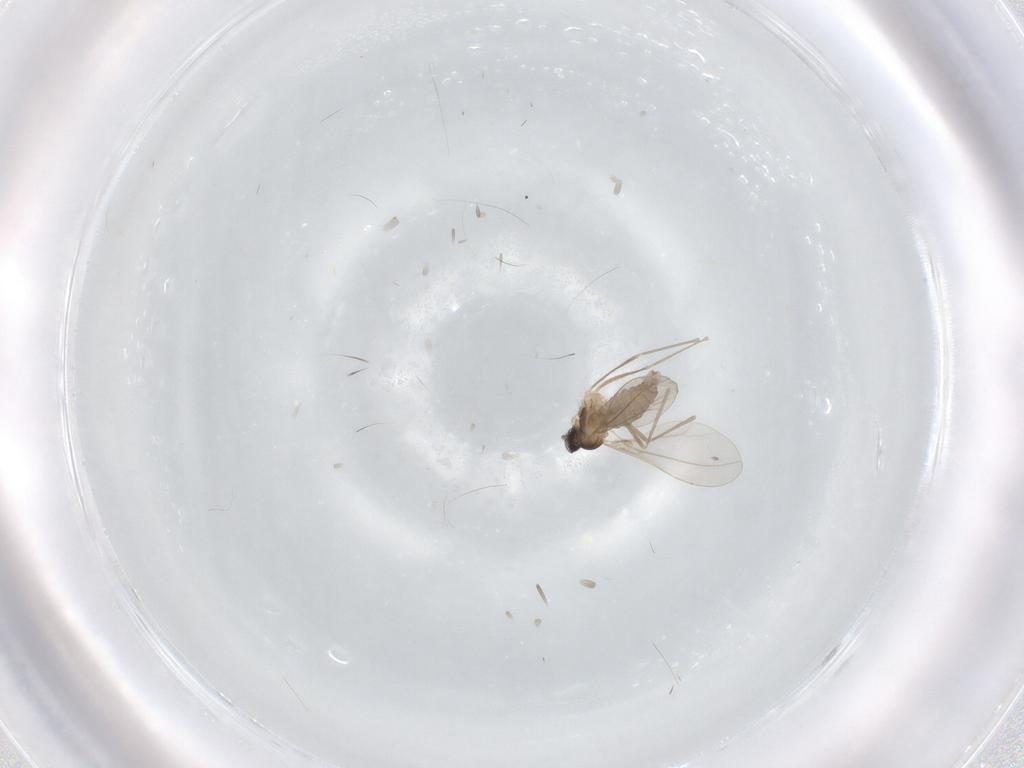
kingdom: Animalia
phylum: Arthropoda
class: Insecta
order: Diptera
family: Cecidomyiidae
